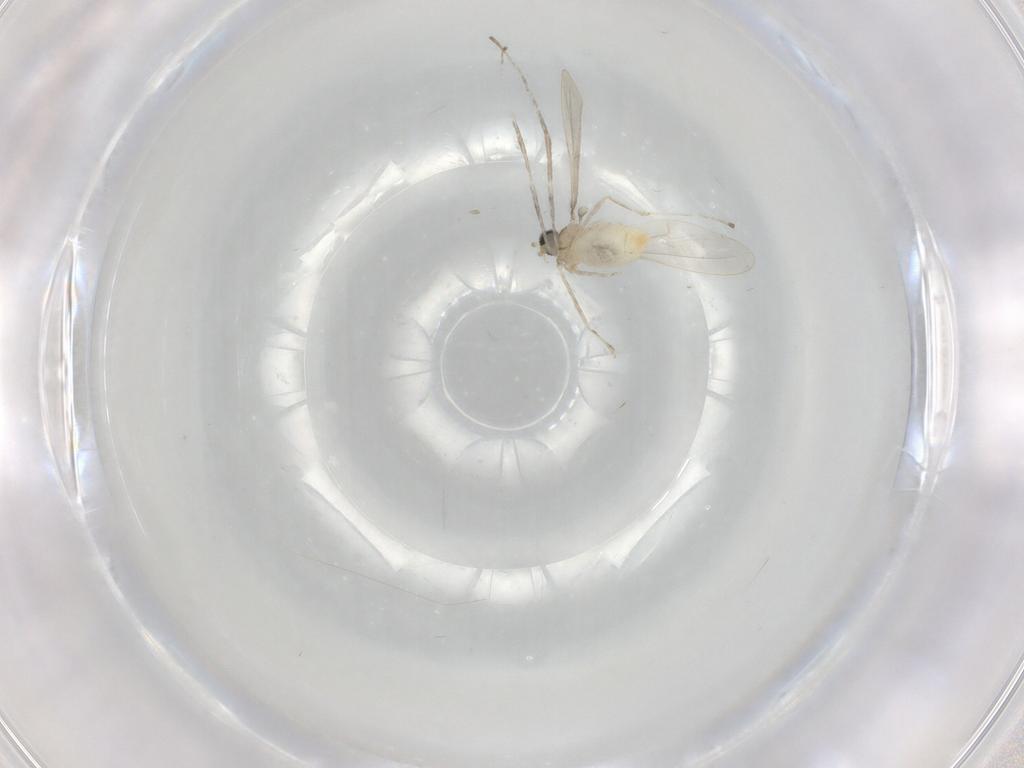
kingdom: Animalia
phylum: Arthropoda
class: Insecta
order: Diptera
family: Cecidomyiidae
